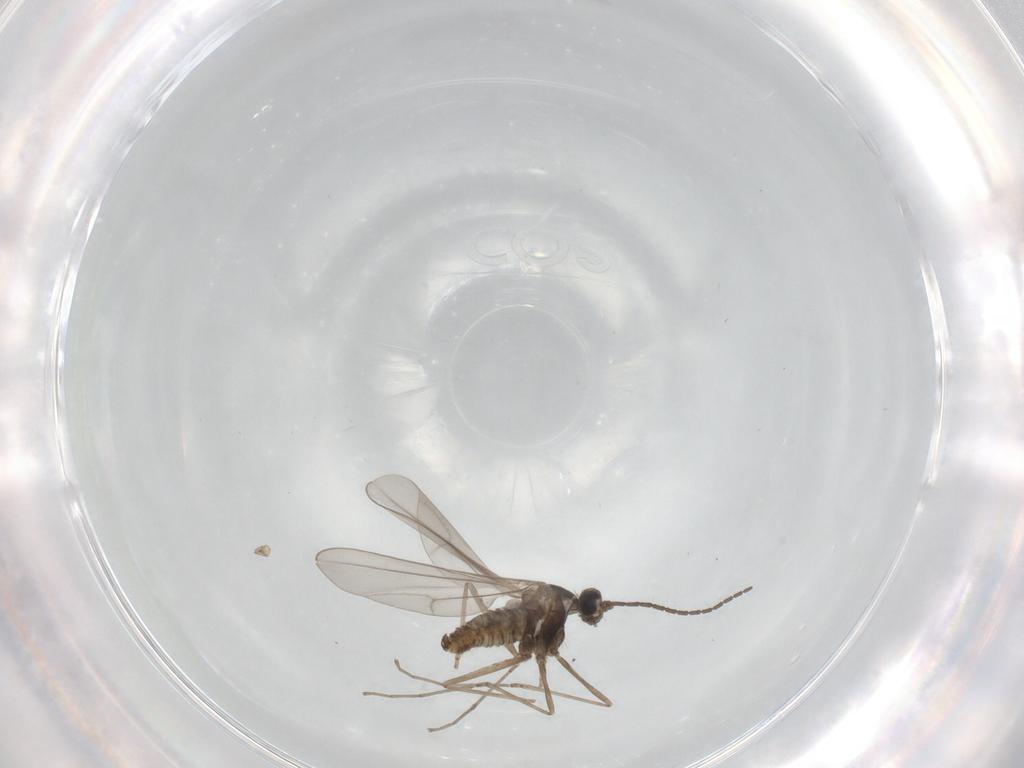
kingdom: Animalia
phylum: Arthropoda
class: Insecta
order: Diptera
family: Cecidomyiidae
